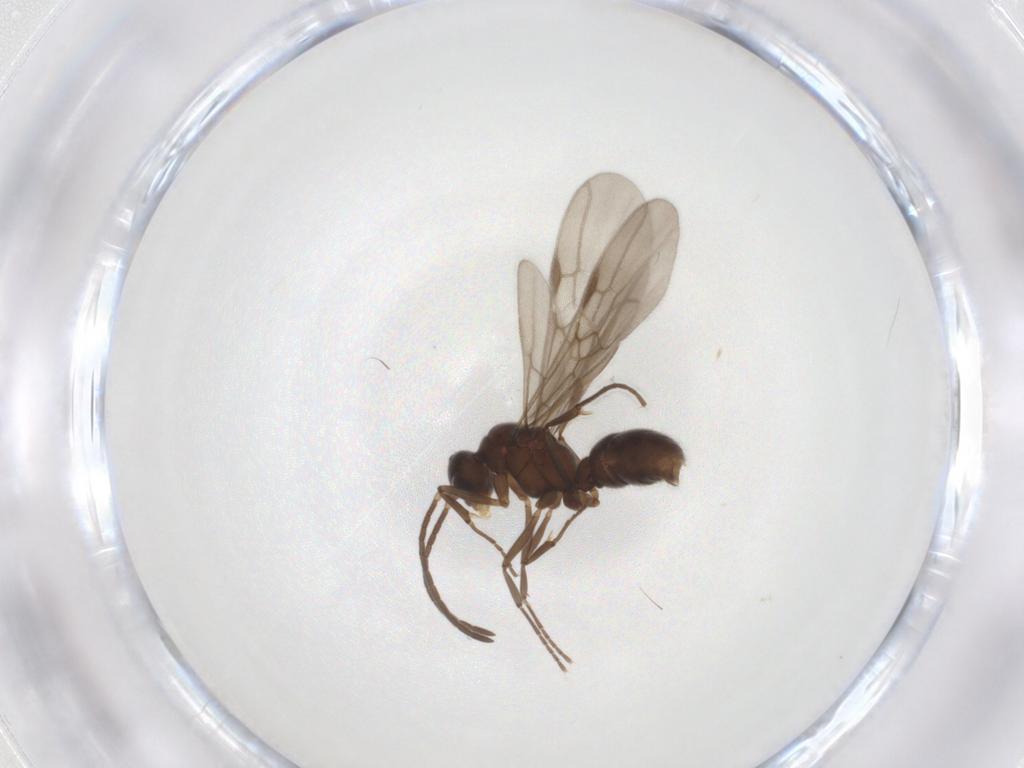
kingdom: Animalia
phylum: Arthropoda
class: Insecta
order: Hymenoptera
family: Formicidae
